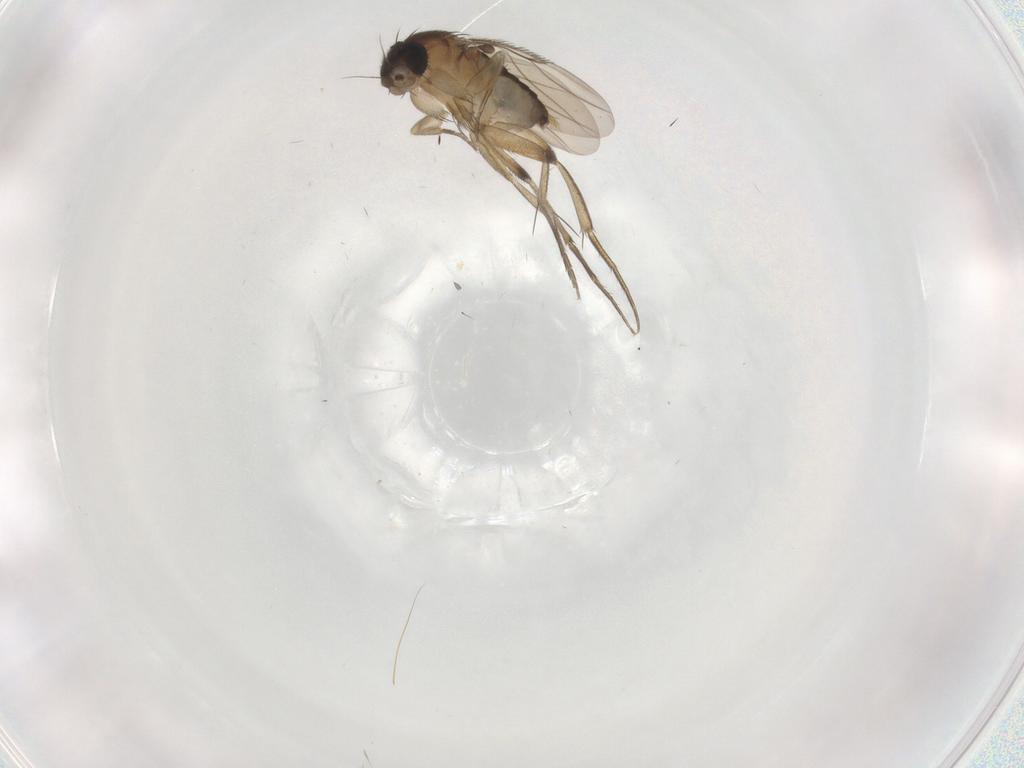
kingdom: Animalia
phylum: Arthropoda
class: Insecta
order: Diptera
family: Phoridae
